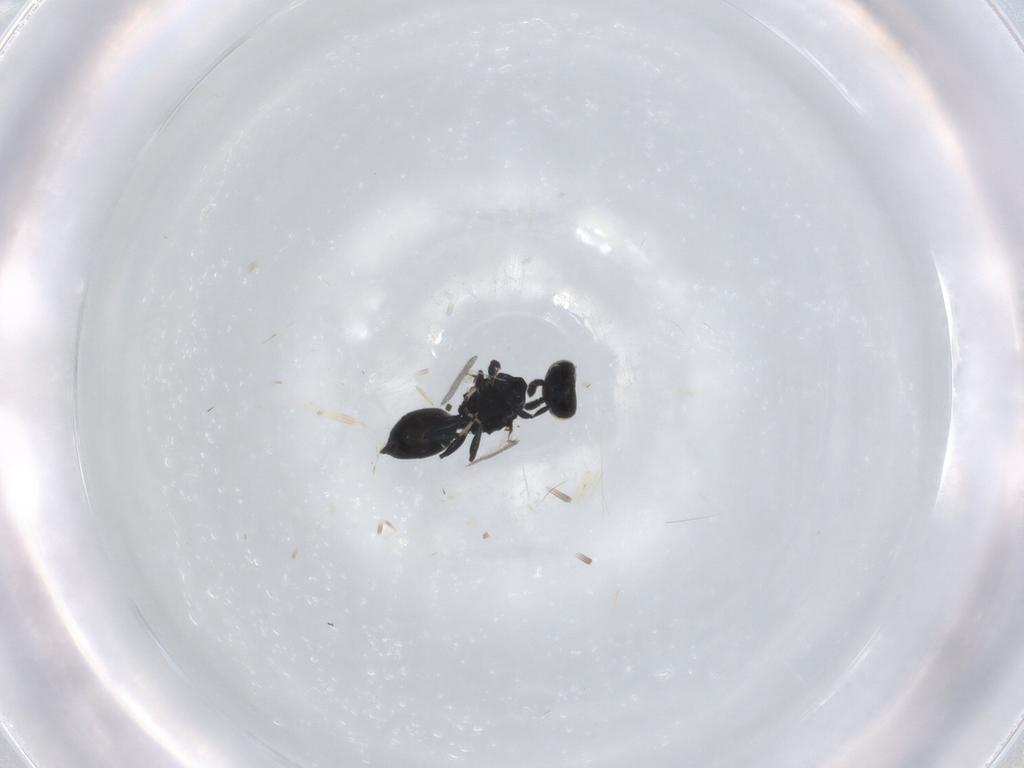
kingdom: Animalia
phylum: Arthropoda
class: Insecta
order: Hymenoptera
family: Eulophidae
